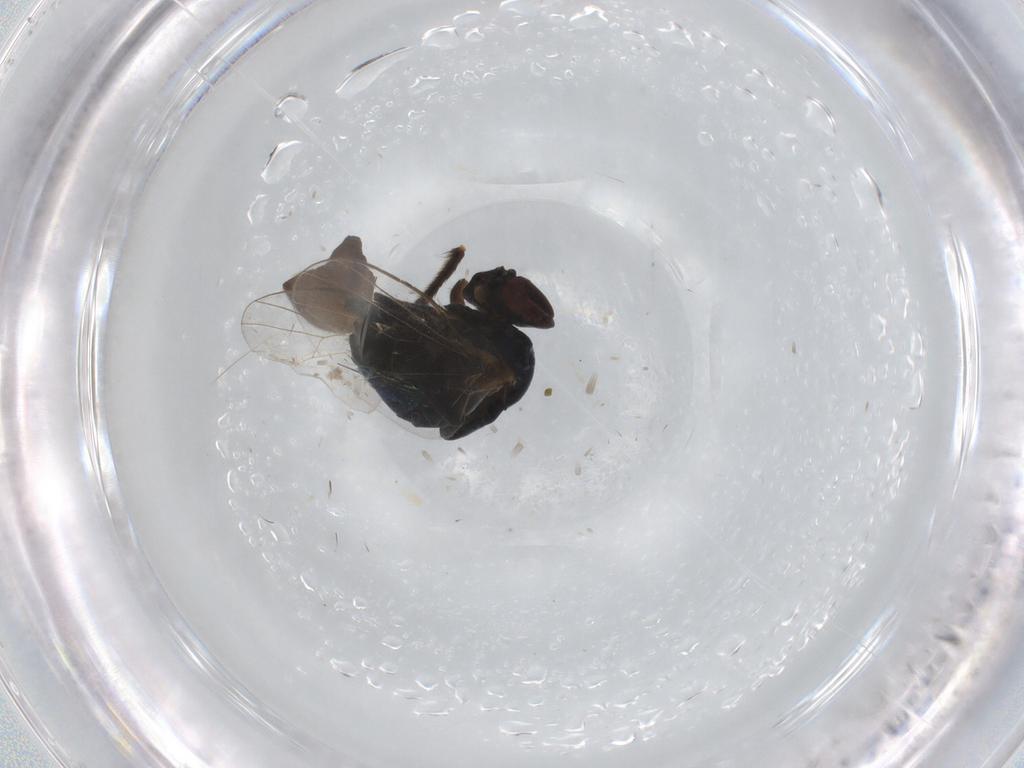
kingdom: Animalia
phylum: Arthropoda
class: Insecta
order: Diptera
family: Agromyzidae
